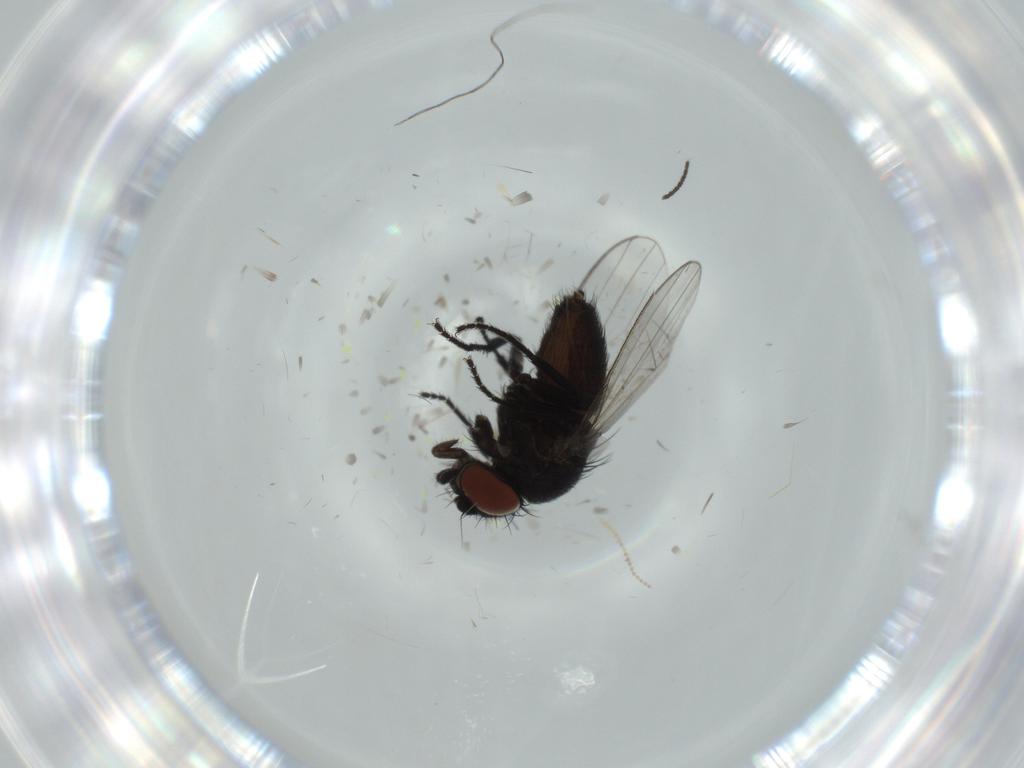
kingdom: Animalia
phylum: Arthropoda
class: Insecta
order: Diptera
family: Milichiidae
